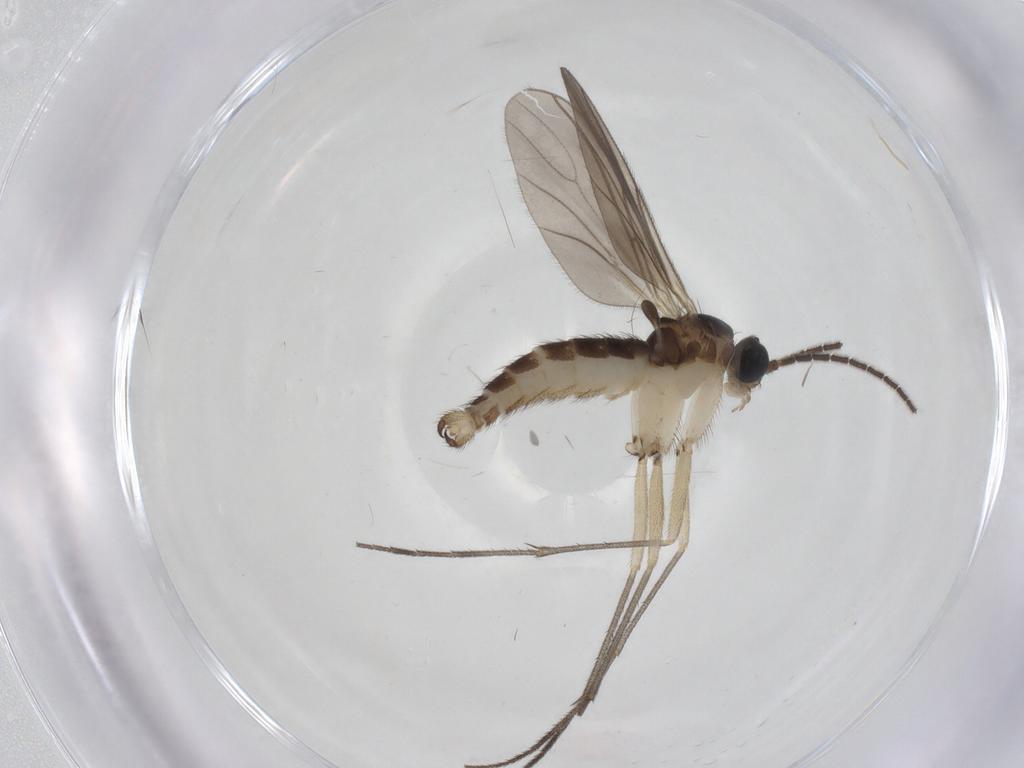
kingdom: Animalia
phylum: Arthropoda
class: Insecta
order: Diptera
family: Sciaridae
